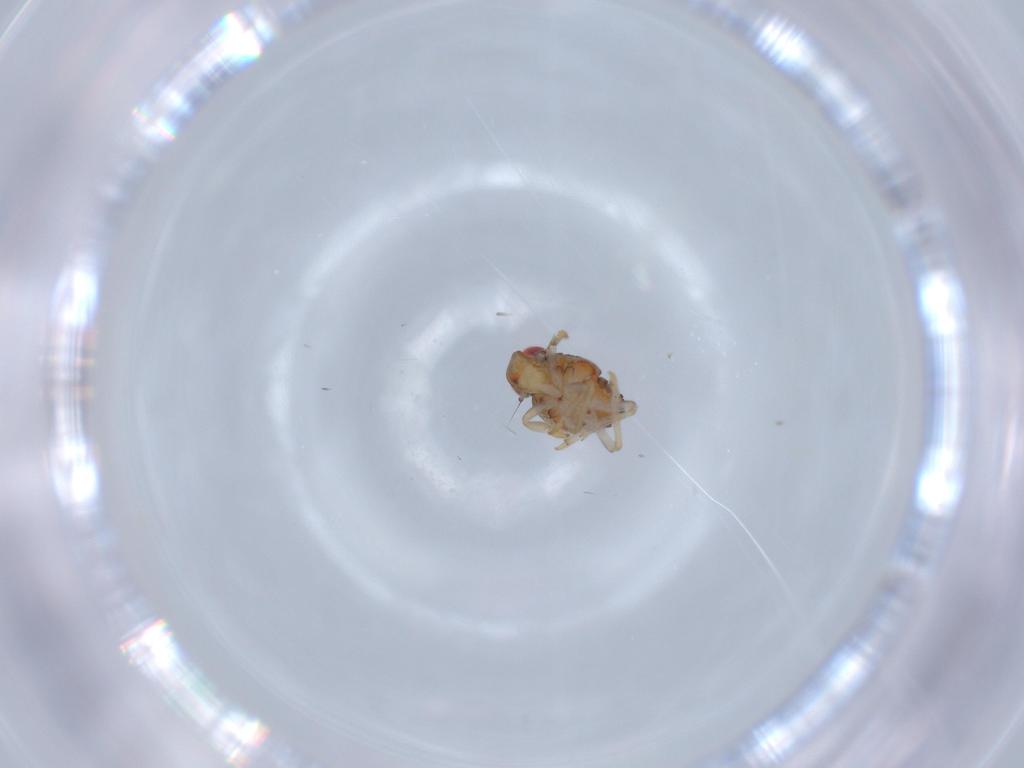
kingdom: Animalia
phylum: Arthropoda
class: Insecta
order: Hemiptera
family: Issidae
